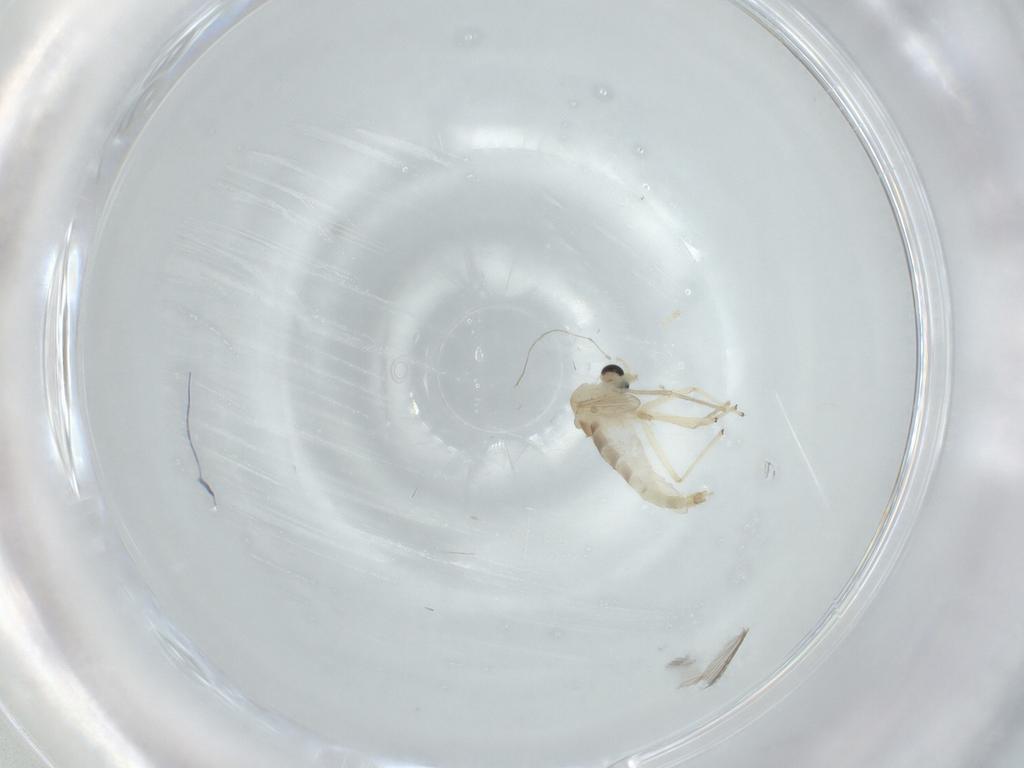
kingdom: Animalia
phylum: Arthropoda
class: Insecta
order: Diptera
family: Chironomidae
